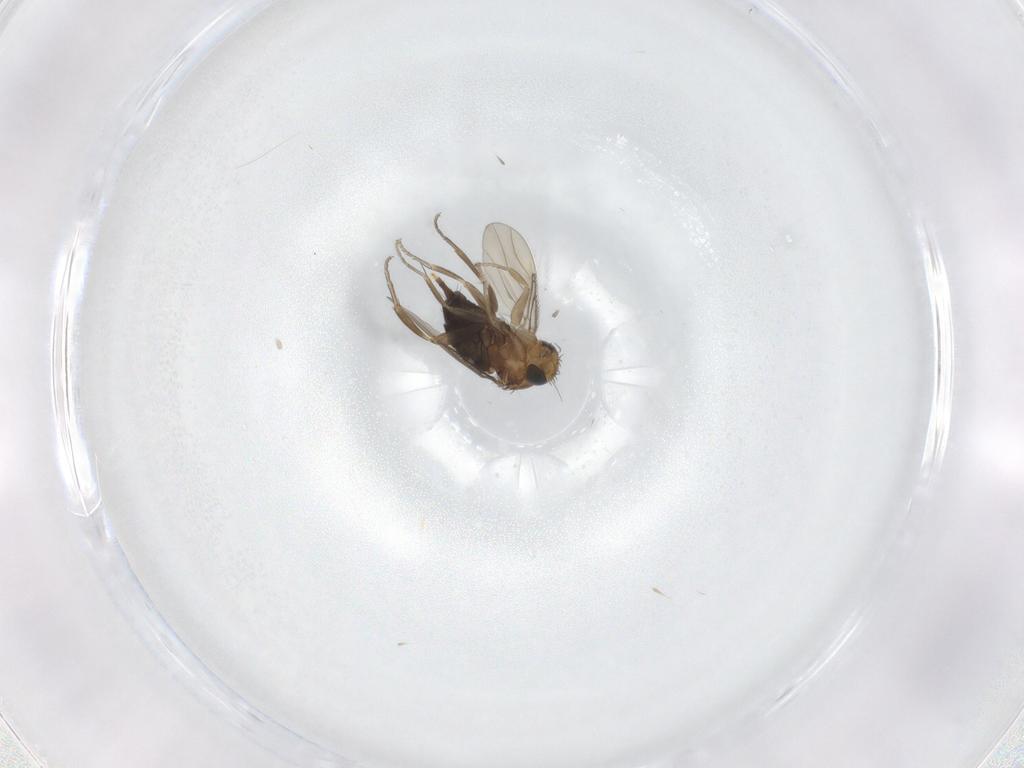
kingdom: Animalia
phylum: Arthropoda
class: Insecta
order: Diptera
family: Phoridae
